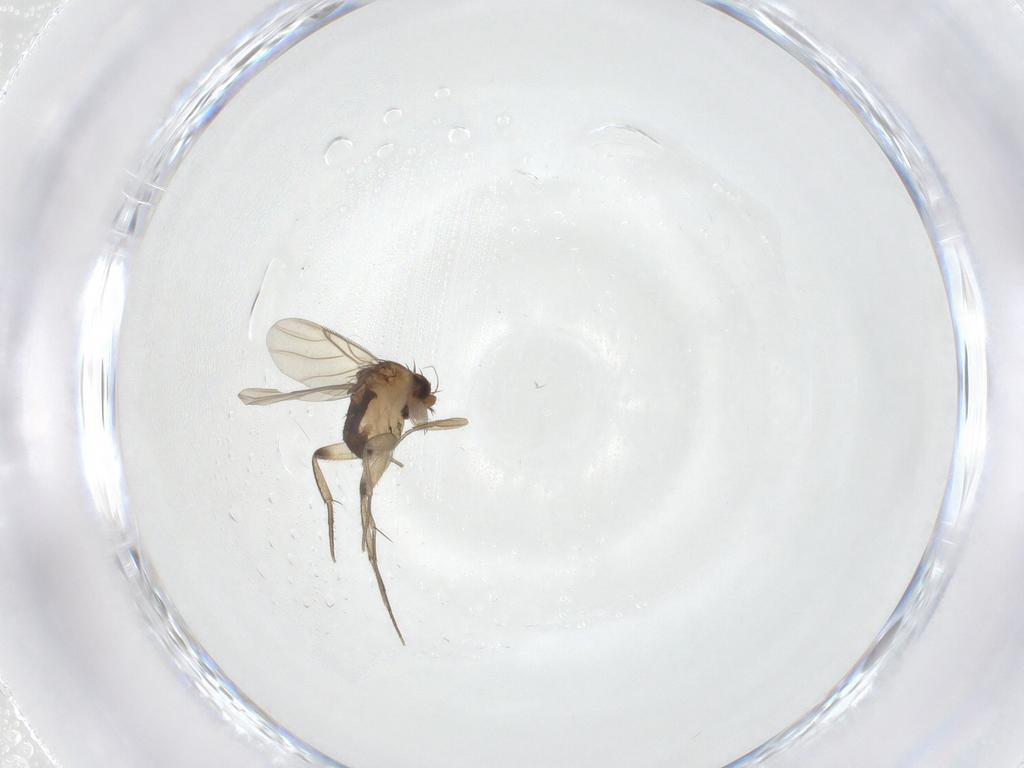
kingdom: Animalia
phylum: Arthropoda
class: Insecta
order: Diptera
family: Phoridae
